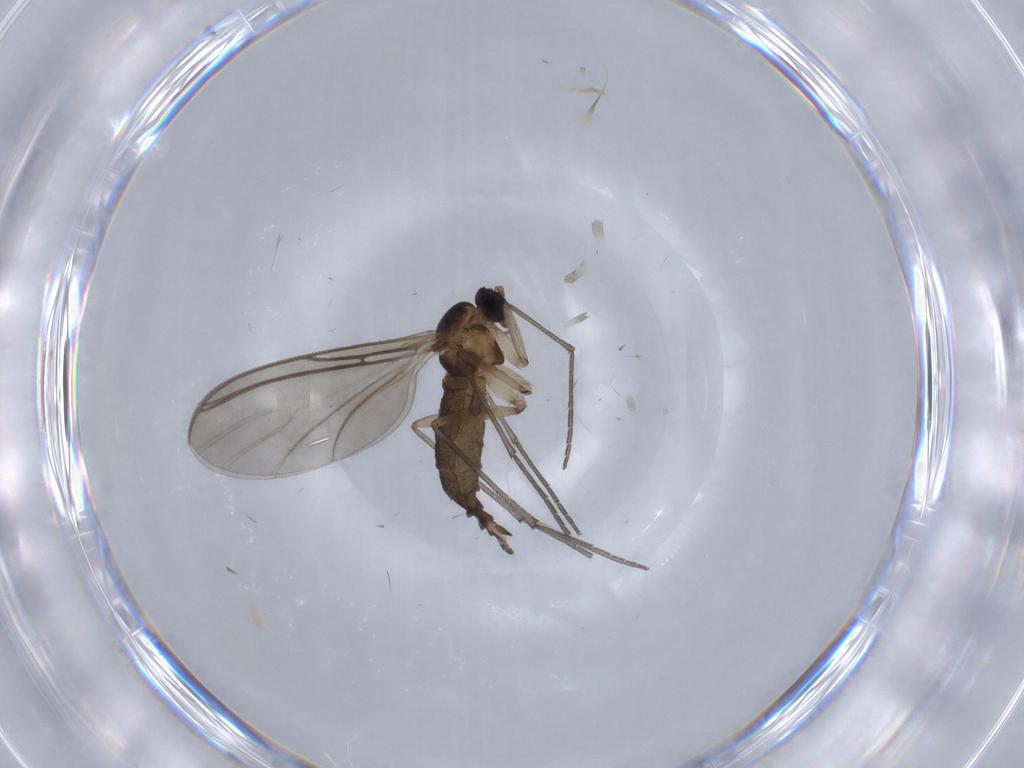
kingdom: Animalia
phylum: Arthropoda
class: Insecta
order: Diptera
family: Sciaridae
